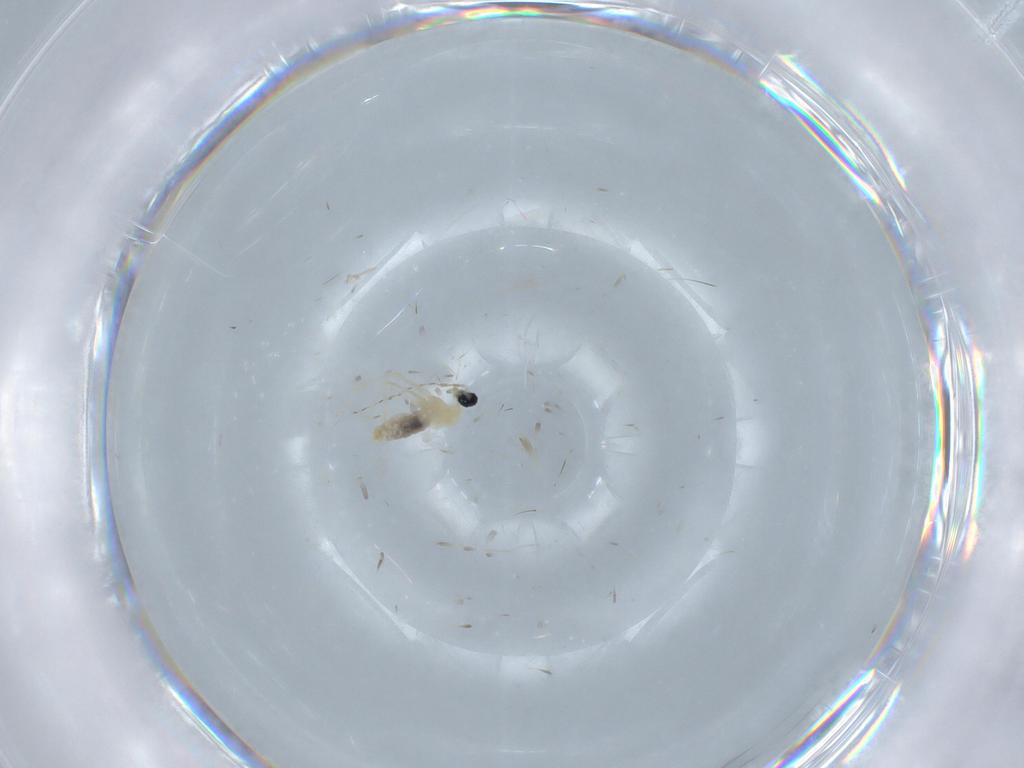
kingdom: Animalia
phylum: Arthropoda
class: Insecta
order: Diptera
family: Cecidomyiidae
